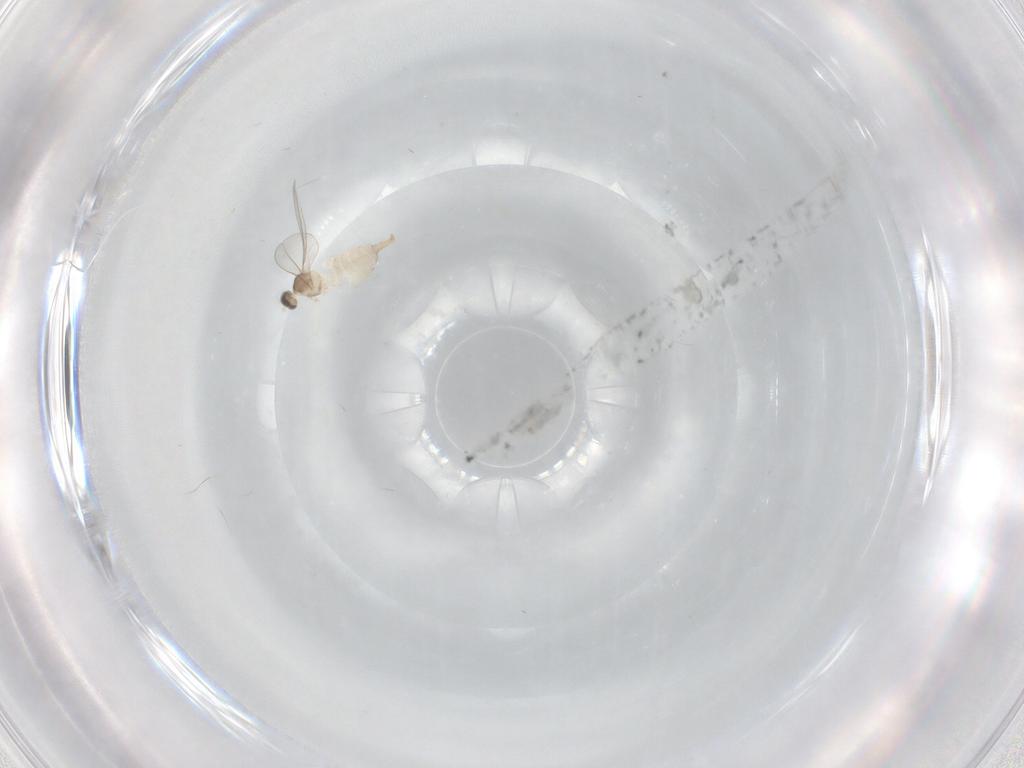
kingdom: Animalia
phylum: Arthropoda
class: Insecta
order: Diptera
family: Cecidomyiidae
